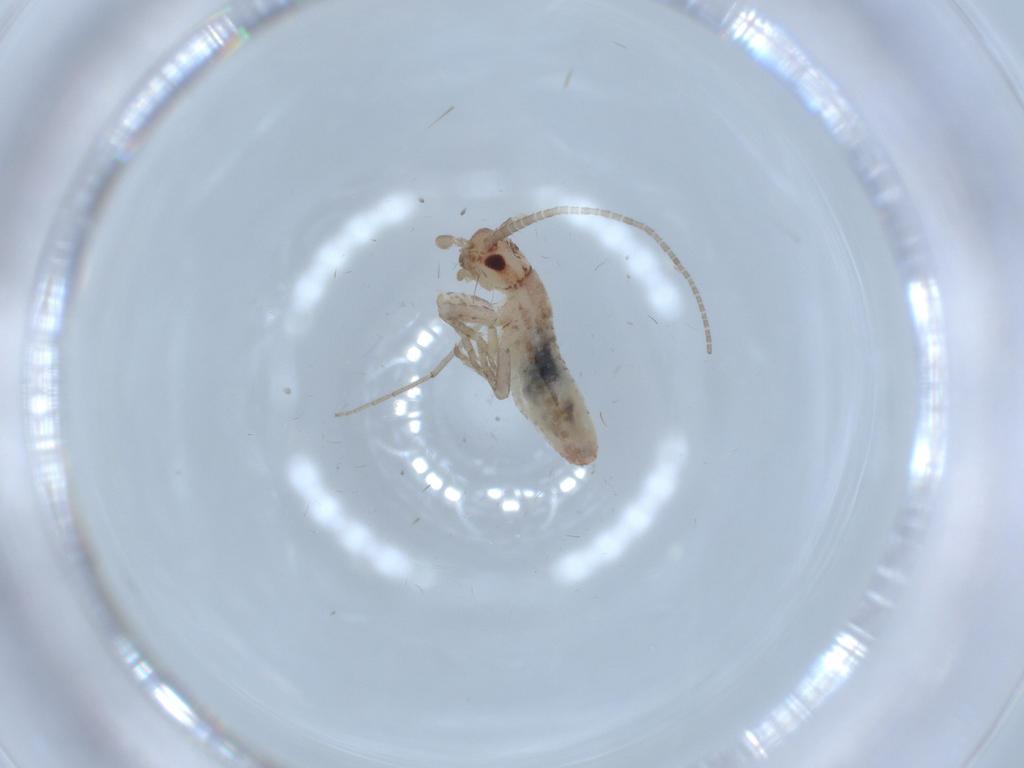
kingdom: Animalia
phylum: Arthropoda
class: Insecta
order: Orthoptera
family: Mogoplistidae
